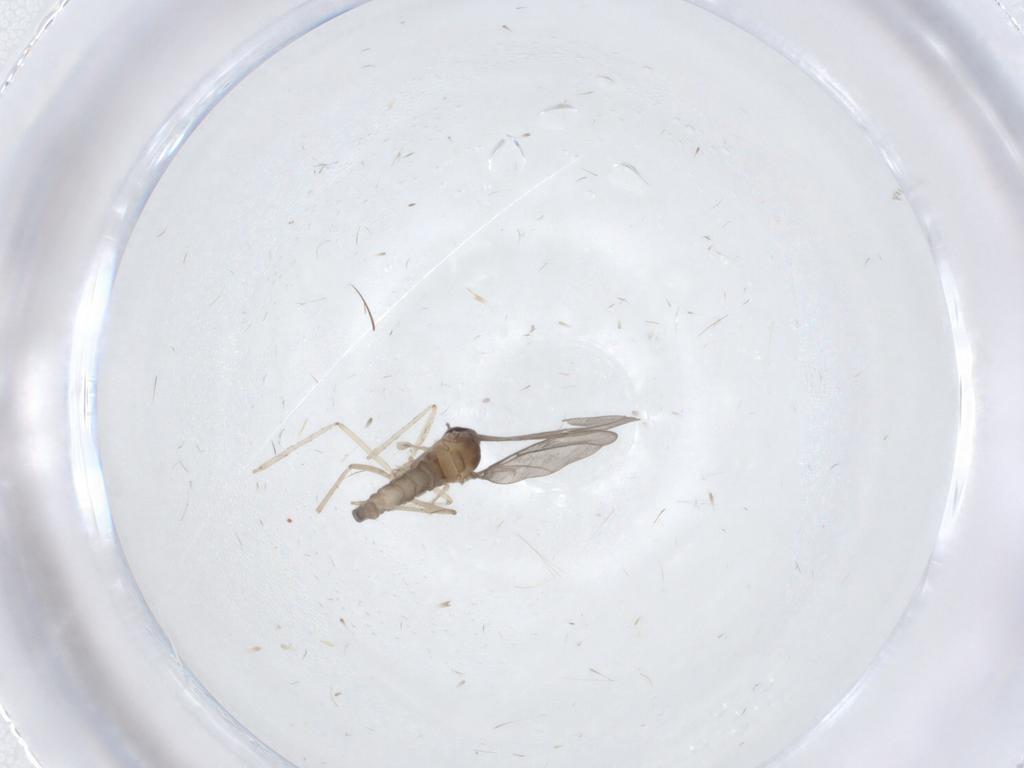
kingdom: Animalia
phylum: Arthropoda
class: Insecta
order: Diptera
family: Cecidomyiidae
